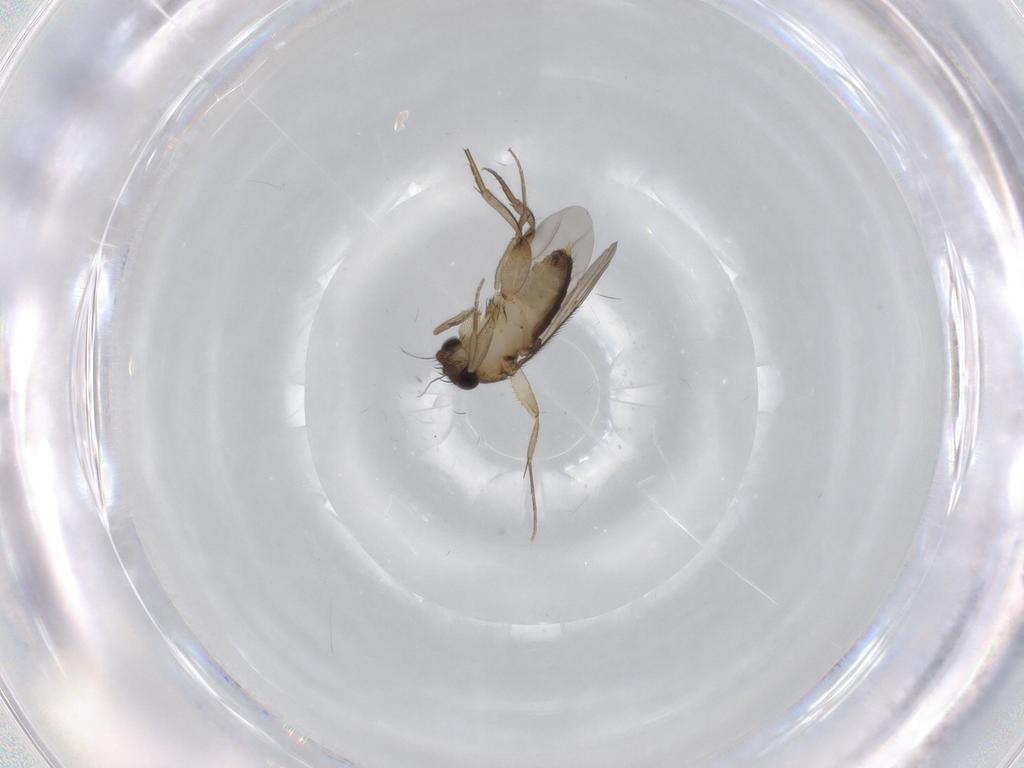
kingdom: Animalia
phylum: Arthropoda
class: Insecta
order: Diptera
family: Phoridae
